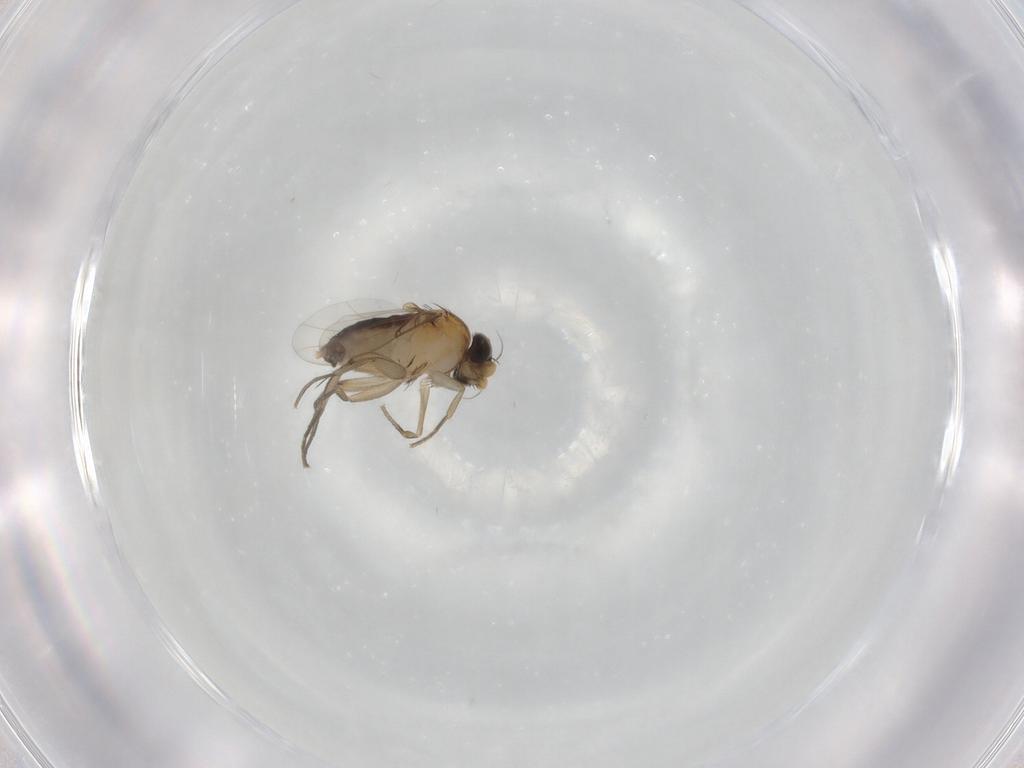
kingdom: Animalia
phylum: Arthropoda
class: Insecta
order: Diptera
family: Phoridae
